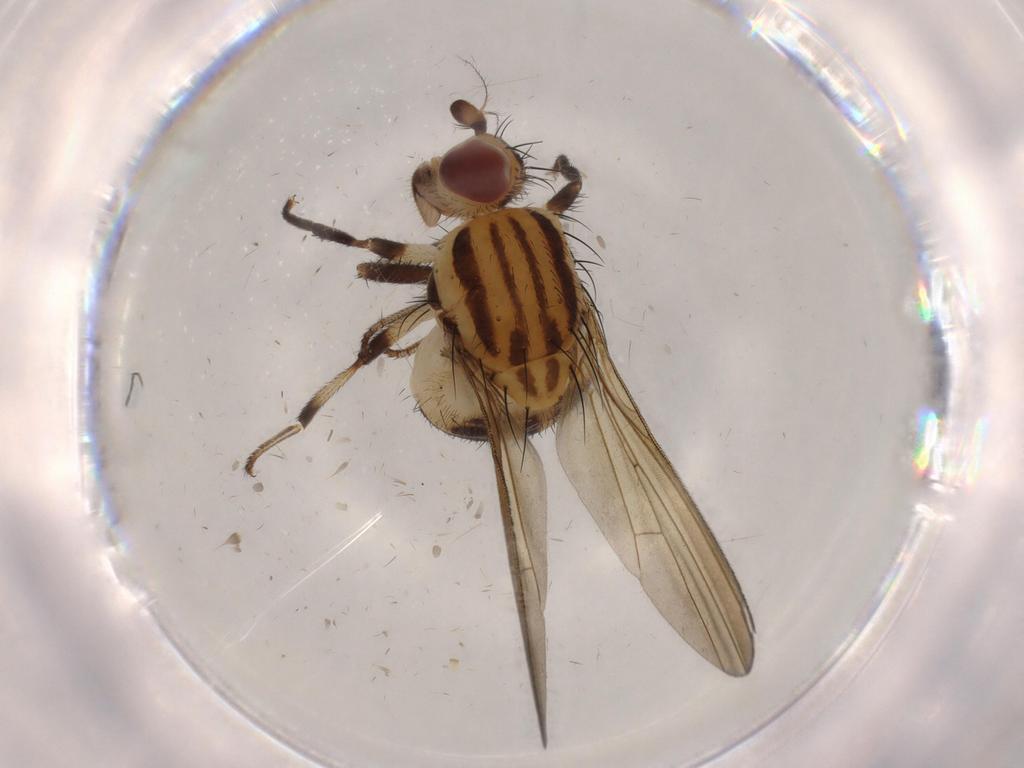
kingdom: Animalia
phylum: Arthropoda
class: Insecta
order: Diptera
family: Lauxaniidae
